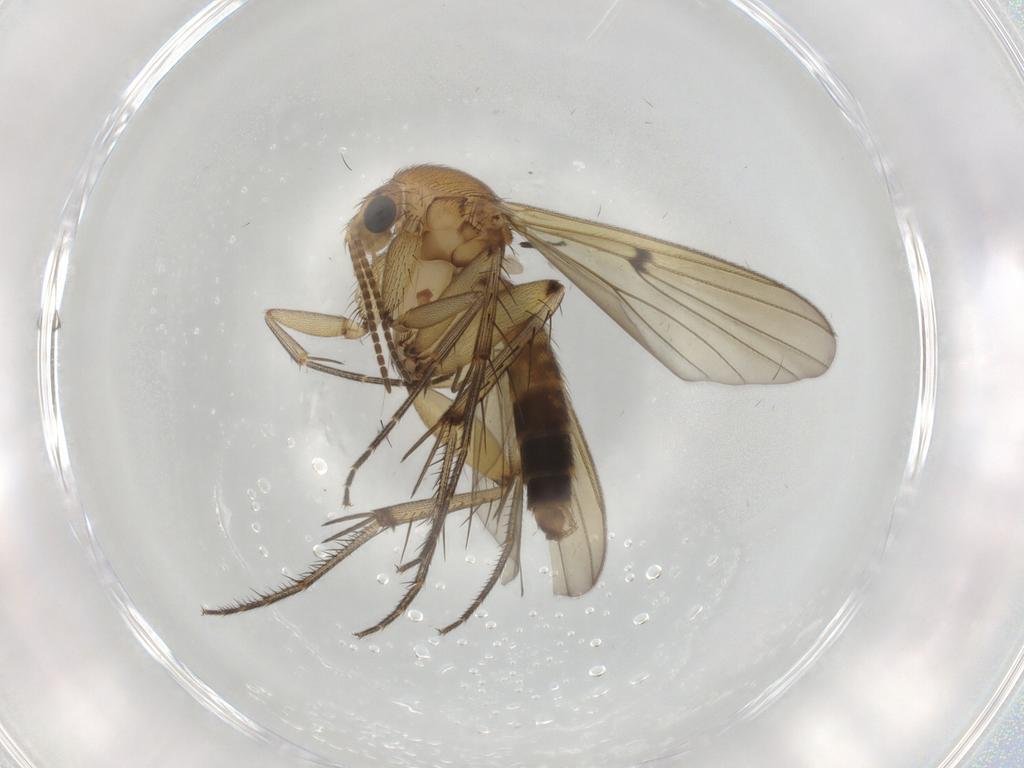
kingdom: Animalia
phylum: Arthropoda
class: Insecta
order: Diptera
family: Mycetophilidae
